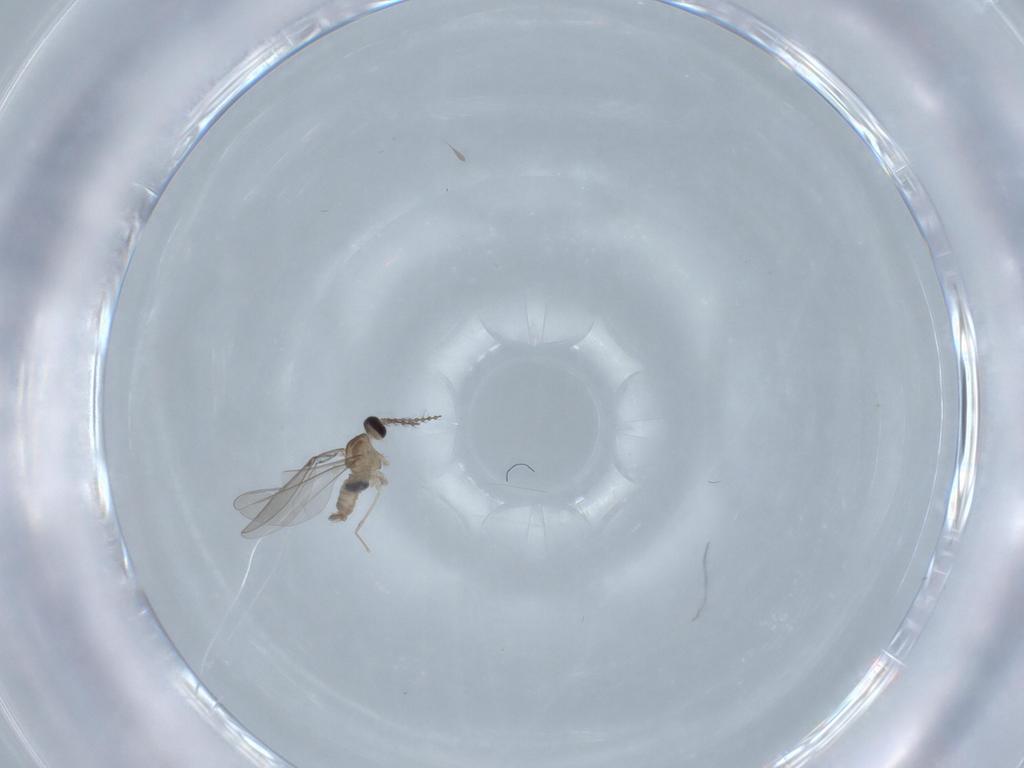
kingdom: Animalia
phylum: Arthropoda
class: Insecta
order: Diptera
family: Cecidomyiidae
